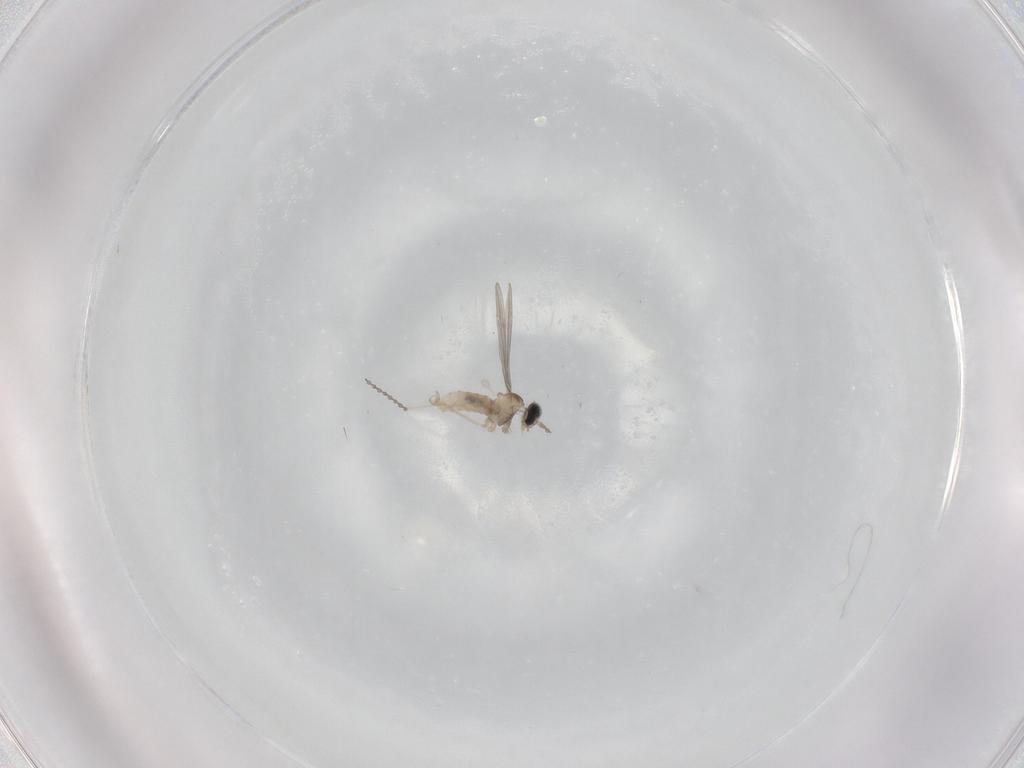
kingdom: Animalia
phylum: Arthropoda
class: Insecta
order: Diptera
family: Cecidomyiidae
